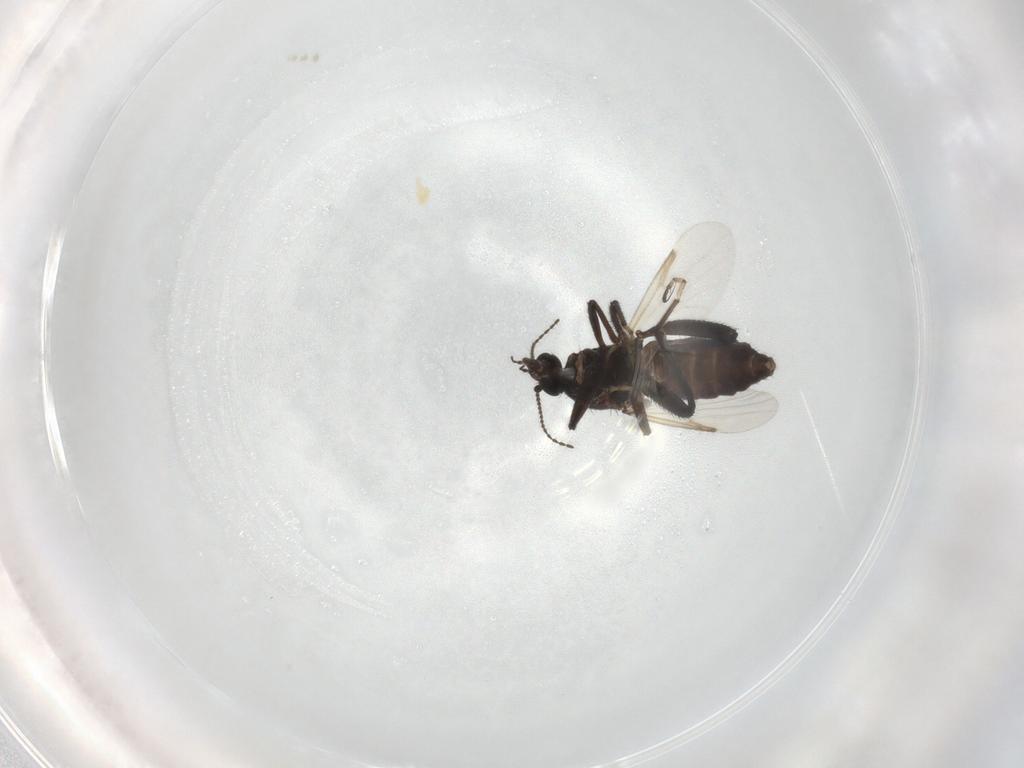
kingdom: Animalia
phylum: Arthropoda
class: Insecta
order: Diptera
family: Ceratopogonidae
